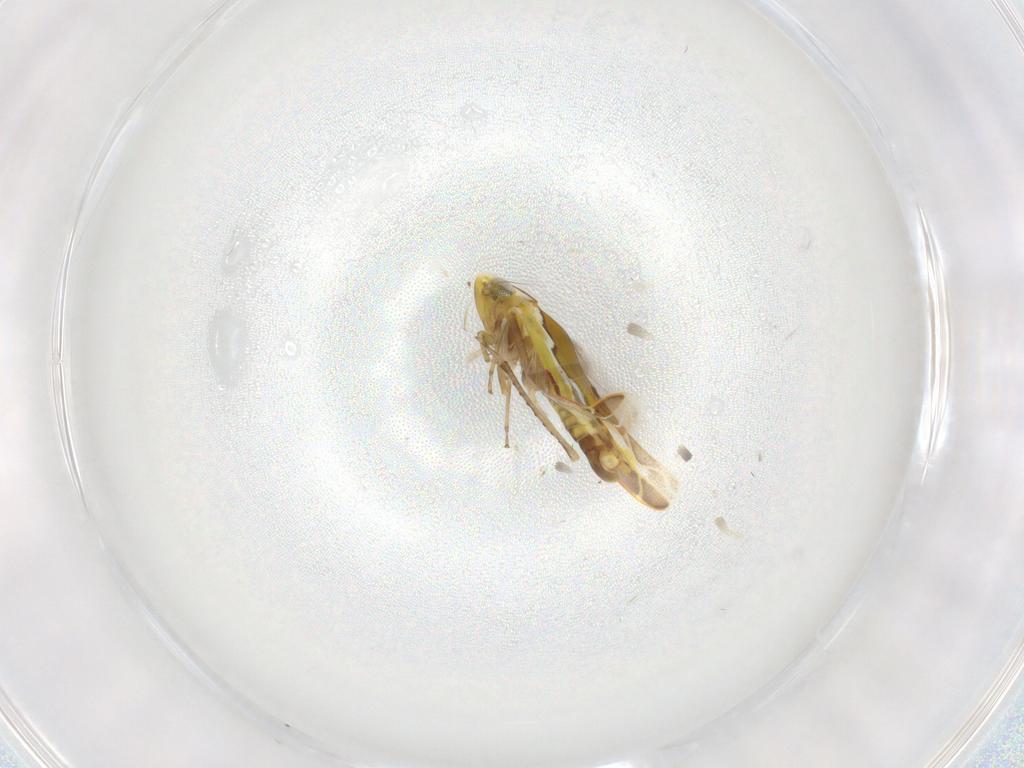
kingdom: Animalia
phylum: Arthropoda
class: Insecta
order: Hemiptera
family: Cicadellidae
